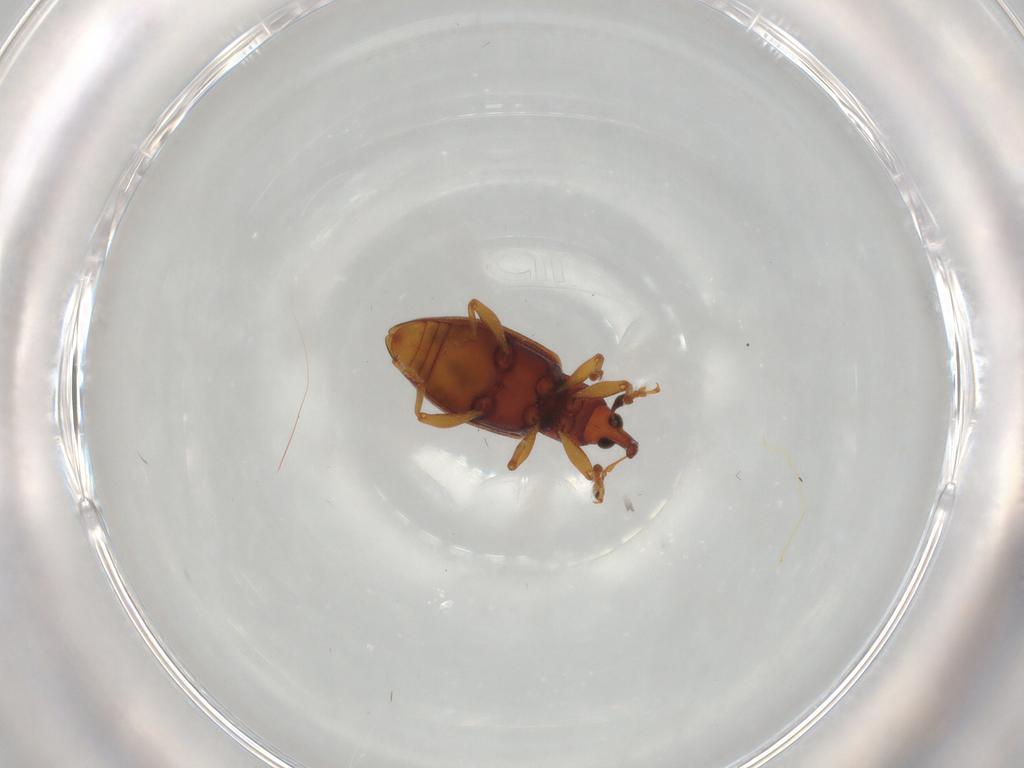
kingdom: Animalia
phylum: Arthropoda
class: Insecta
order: Coleoptera
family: Curculionidae
